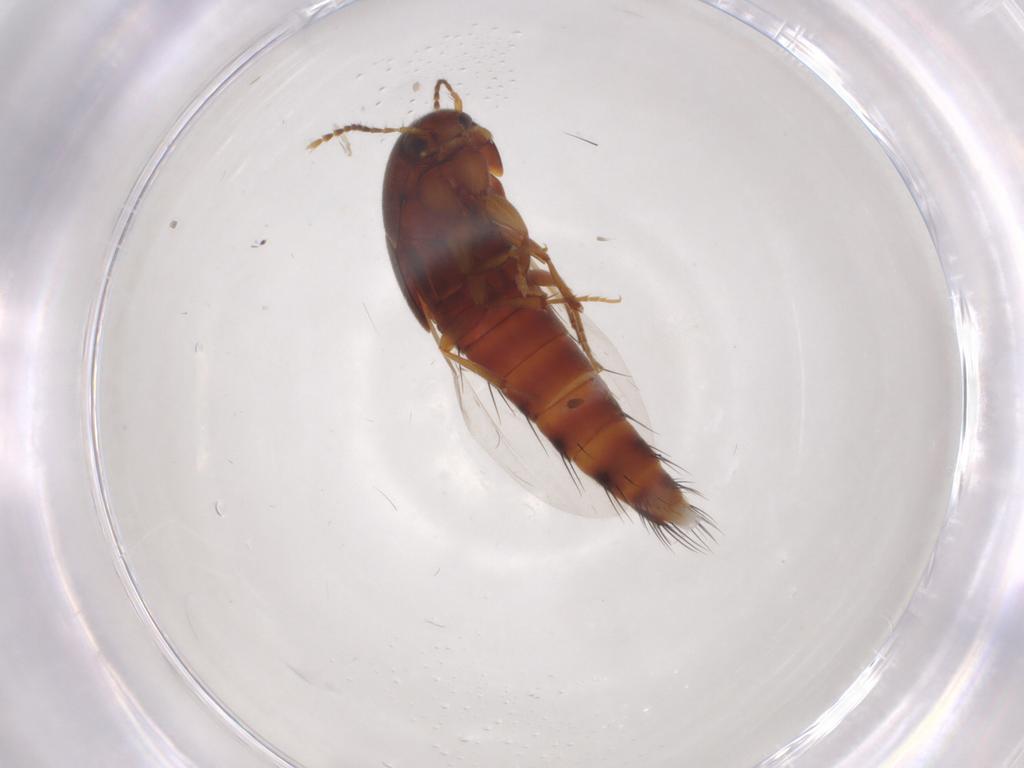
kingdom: Animalia
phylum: Arthropoda
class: Insecta
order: Coleoptera
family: Staphylinidae
